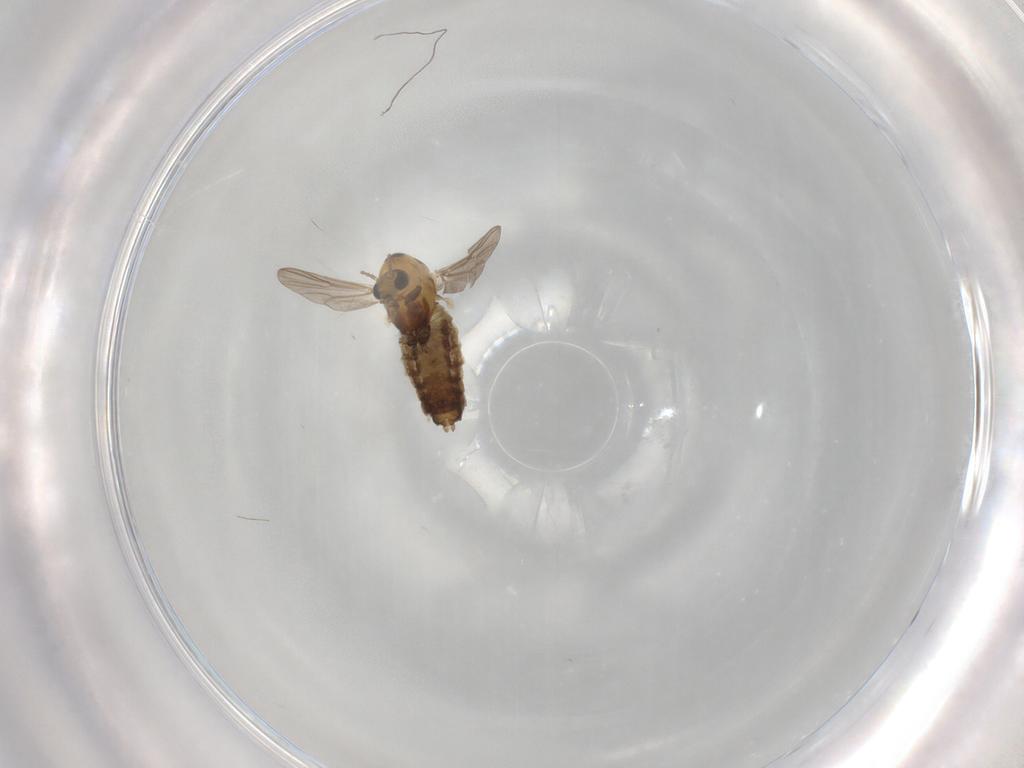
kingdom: Animalia
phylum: Arthropoda
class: Insecta
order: Diptera
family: Chironomidae
